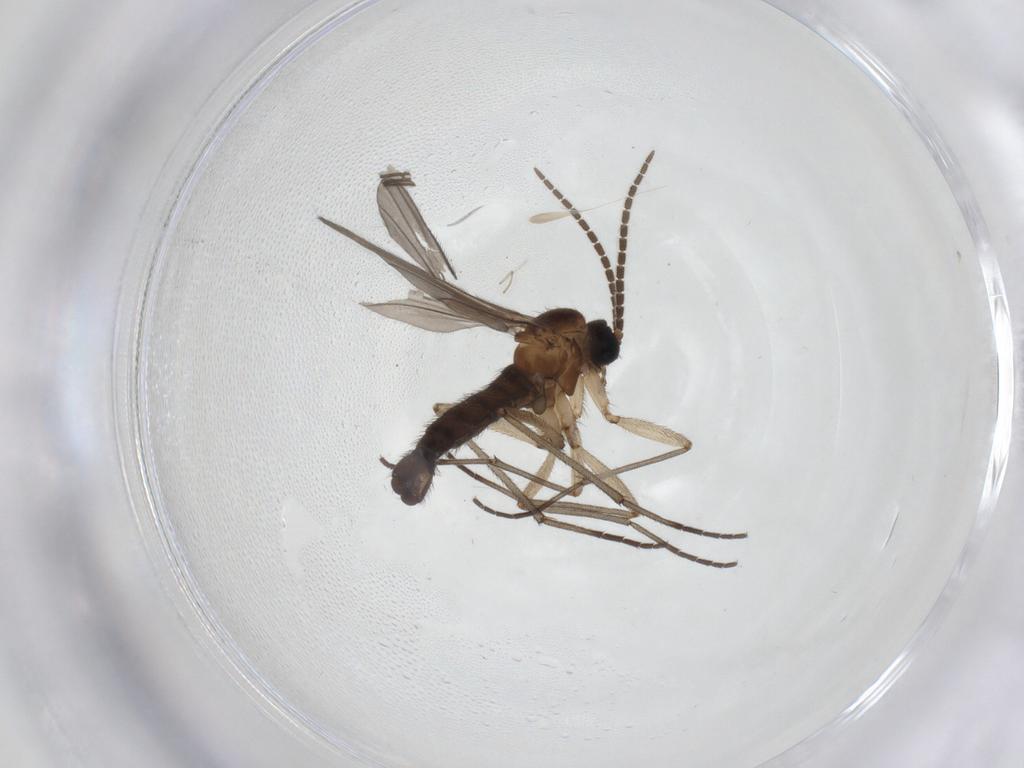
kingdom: Animalia
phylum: Arthropoda
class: Insecta
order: Diptera
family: Sciaridae
